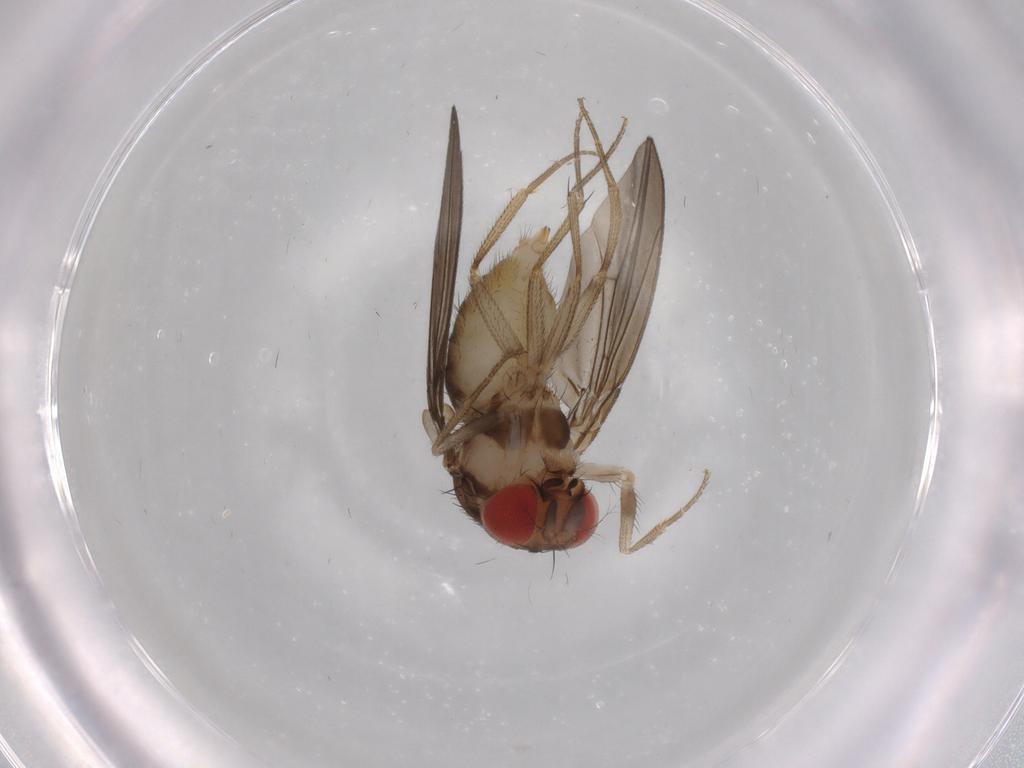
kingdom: Animalia
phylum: Arthropoda
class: Insecta
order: Diptera
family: Drosophilidae
